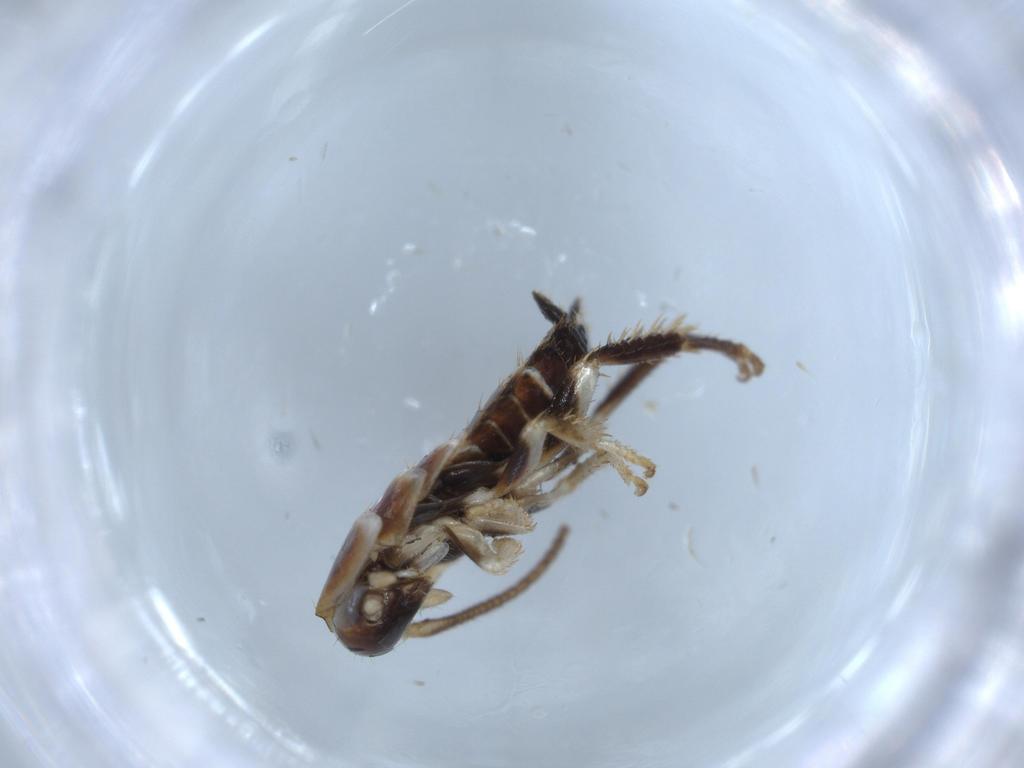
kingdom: Animalia
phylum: Arthropoda
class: Insecta
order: Blattodea
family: Ectobiidae
